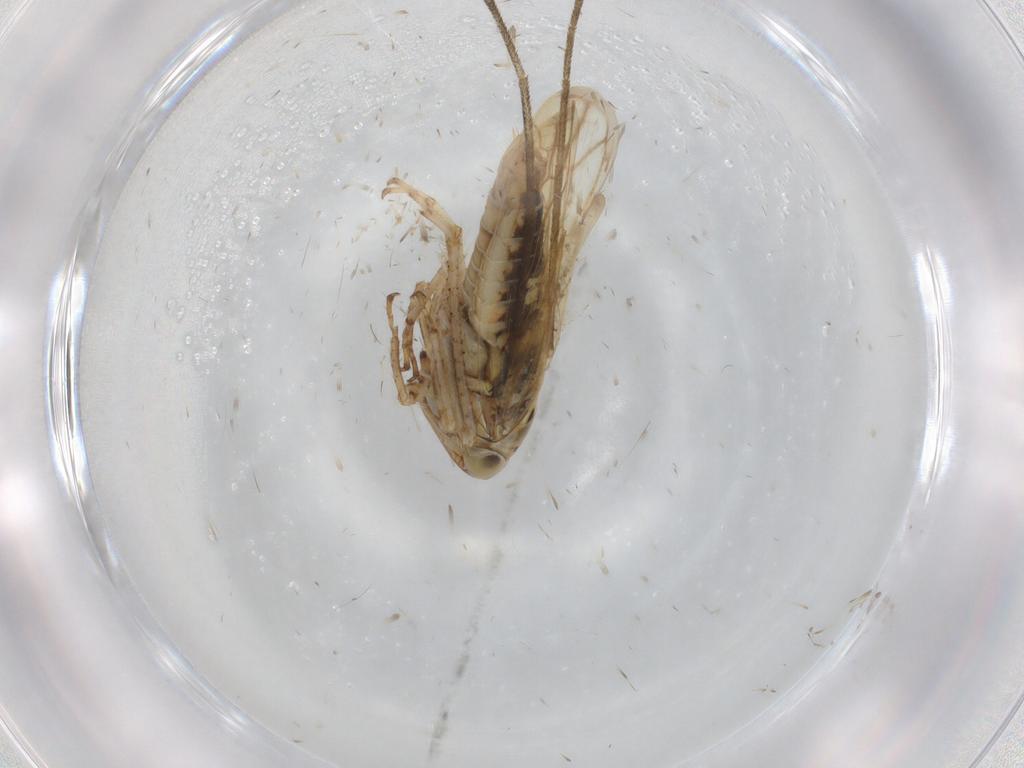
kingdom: Animalia
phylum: Arthropoda
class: Insecta
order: Hemiptera
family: Cicadellidae
